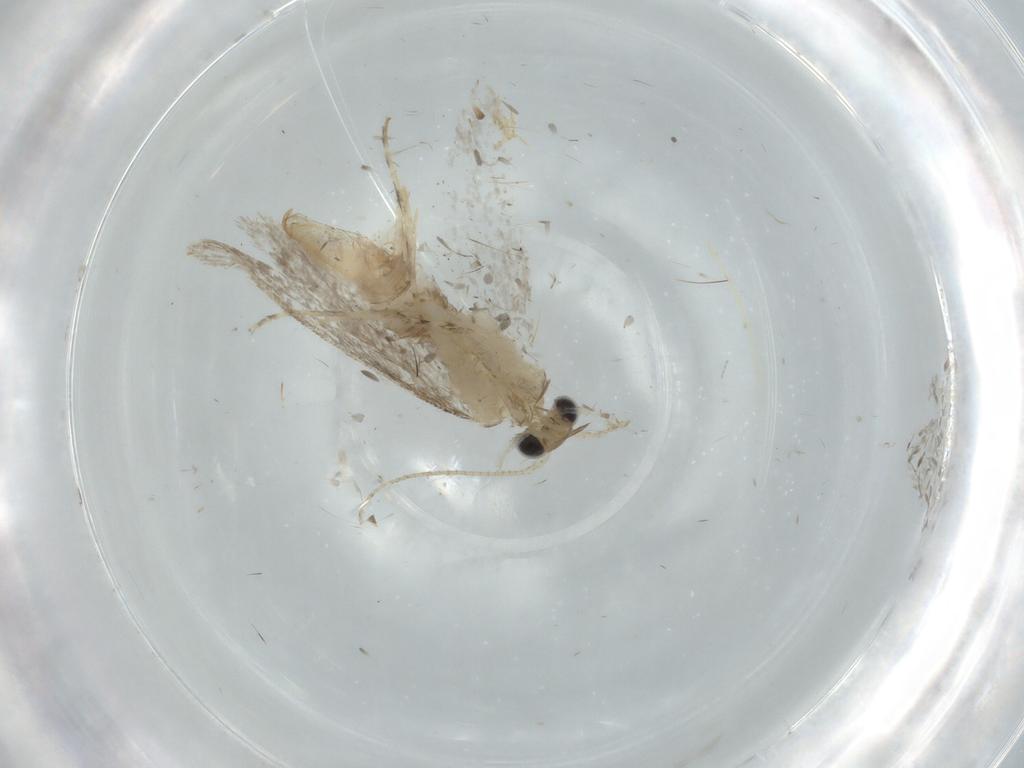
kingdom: Animalia
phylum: Arthropoda
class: Insecta
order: Lepidoptera
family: Tineidae
